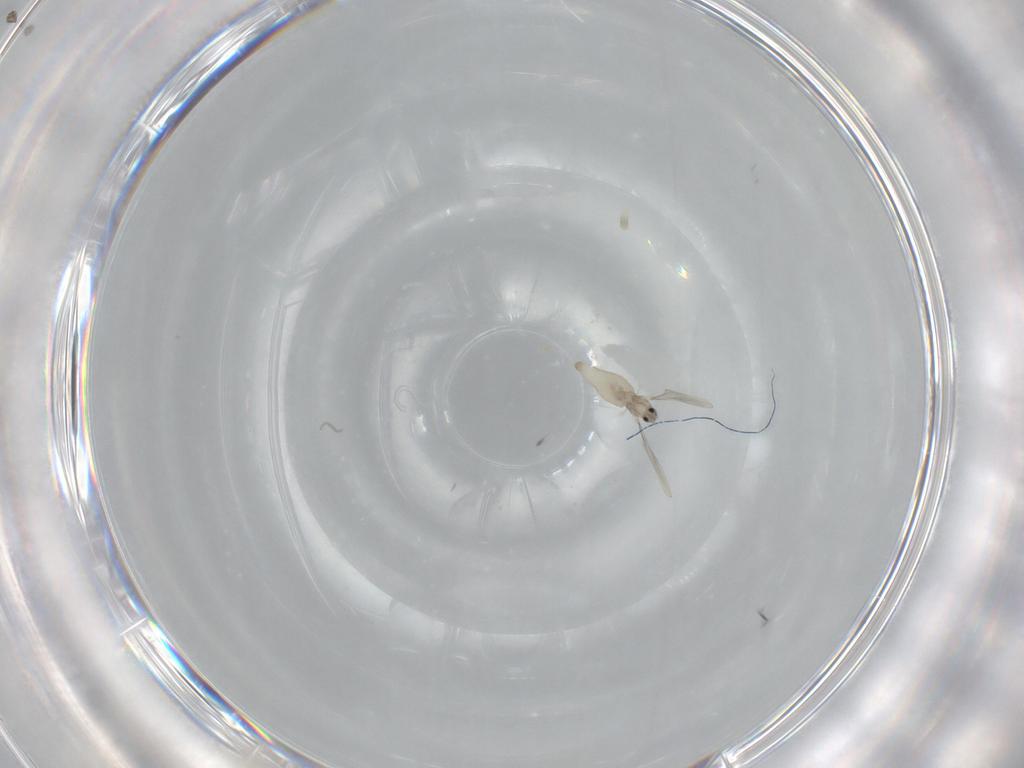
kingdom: Animalia
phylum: Arthropoda
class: Insecta
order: Diptera
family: Cecidomyiidae
